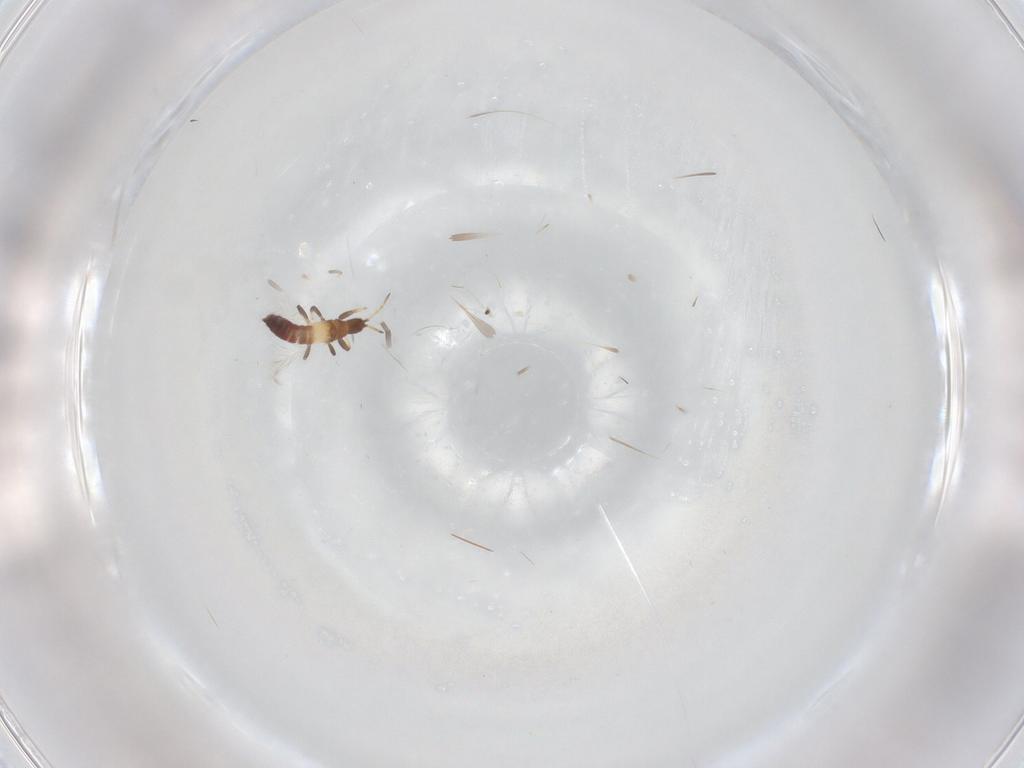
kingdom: Animalia
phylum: Arthropoda
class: Insecta
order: Thysanoptera
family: Phlaeothripidae
